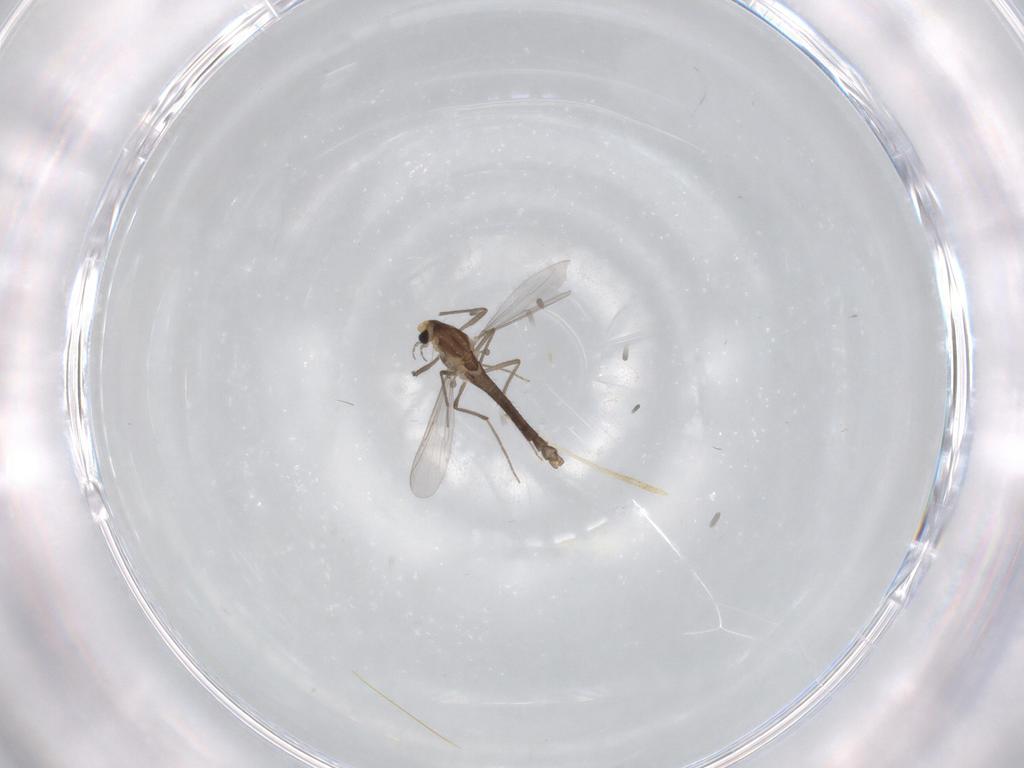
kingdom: Animalia
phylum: Arthropoda
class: Insecta
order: Diptera
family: Chironomidae
